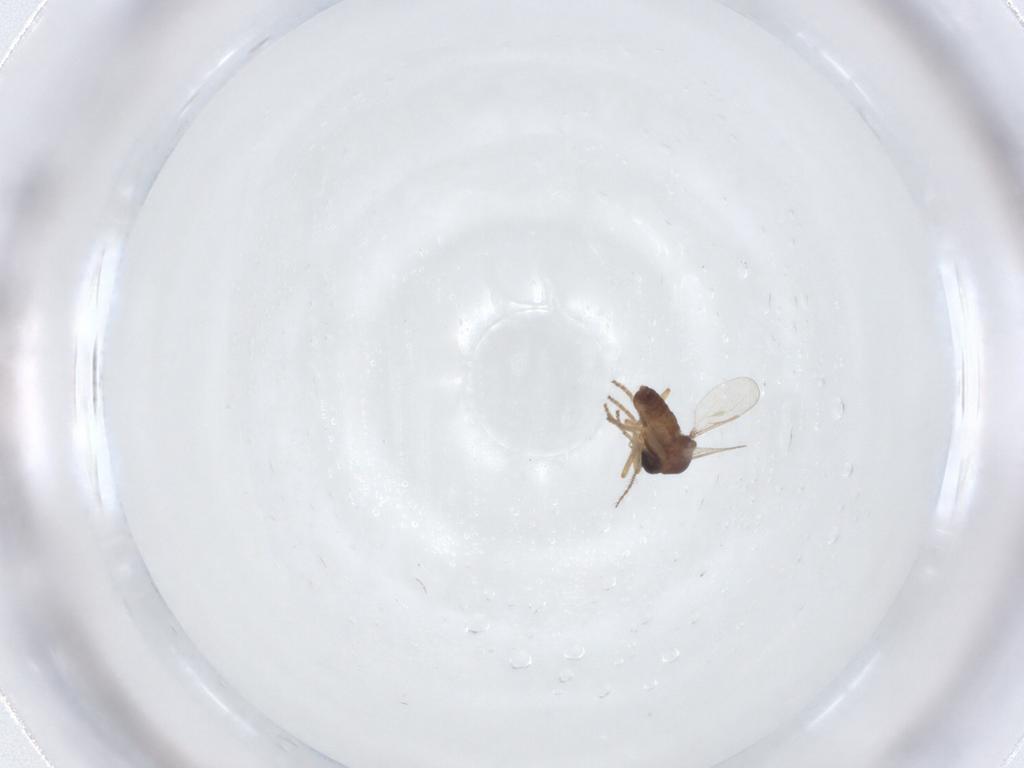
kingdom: Animalia
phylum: Arthropoda
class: Insecta
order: Diptera
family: Ceratopogonidae
